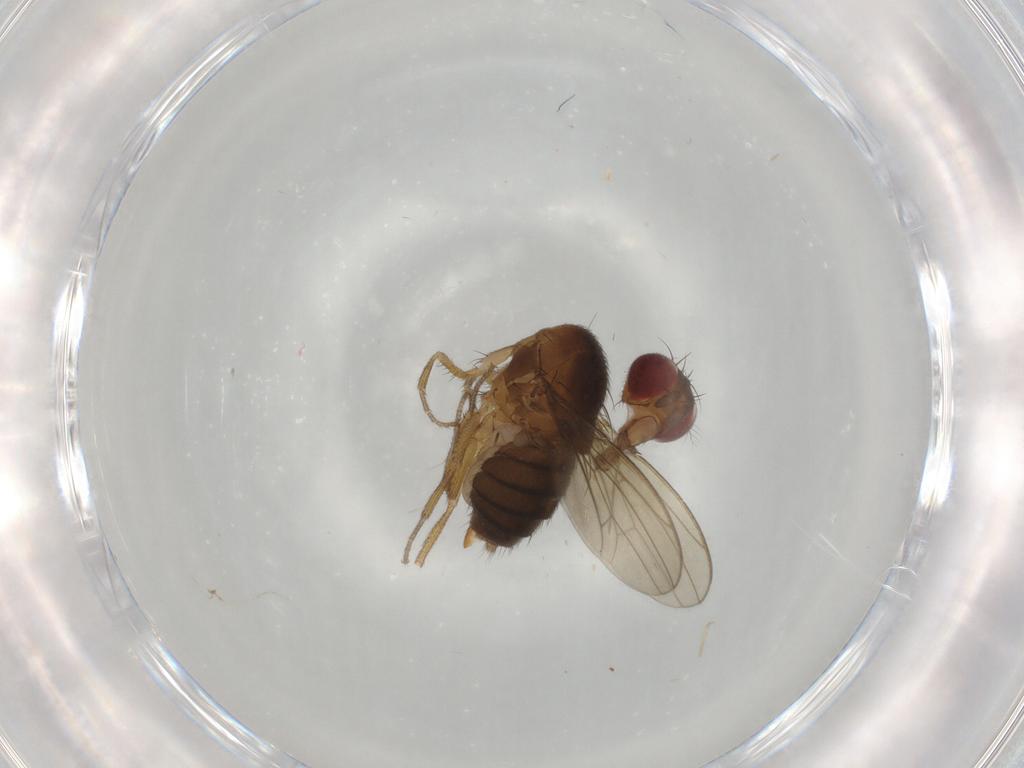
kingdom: Animalia
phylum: Arthropoda
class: Insecta
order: Diptera
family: Drosophilidae
